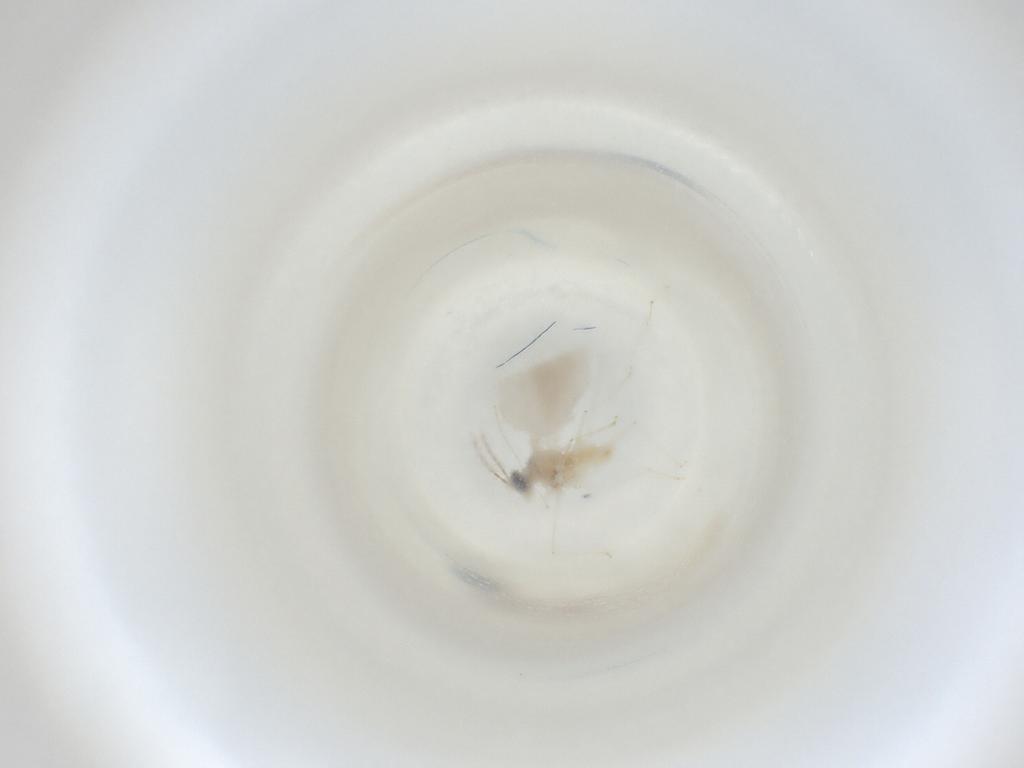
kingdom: Animalia
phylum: Arthropoda
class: Insecta
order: Diptera
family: Cecidomyiidae
